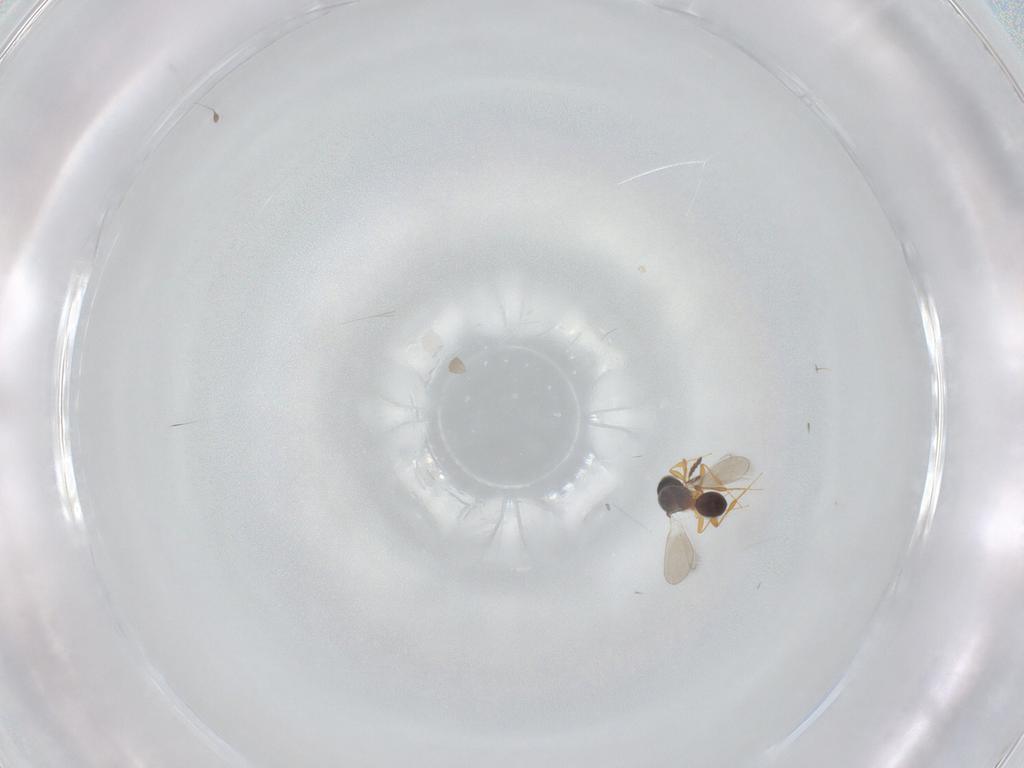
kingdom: Animalia
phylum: Arthropoda
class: Insecta
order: Hymenoptera
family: Platygastridae
